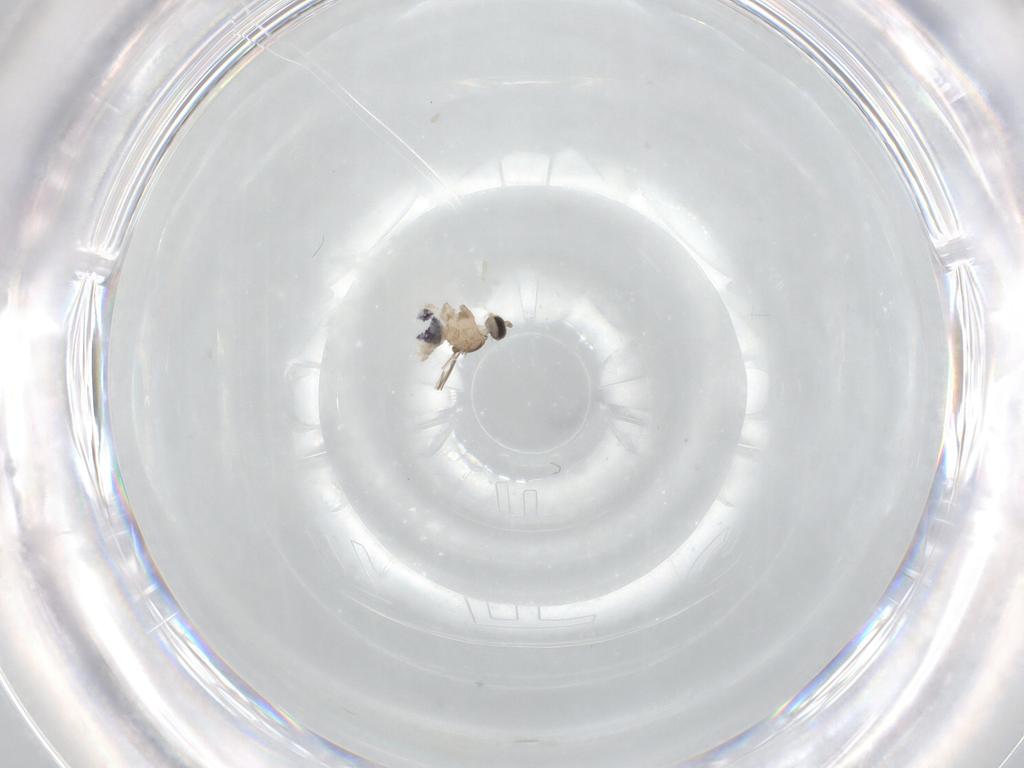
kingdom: Animalia
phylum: Arthropoda
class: Insecta
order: Diptera
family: Cecidomyiidae
